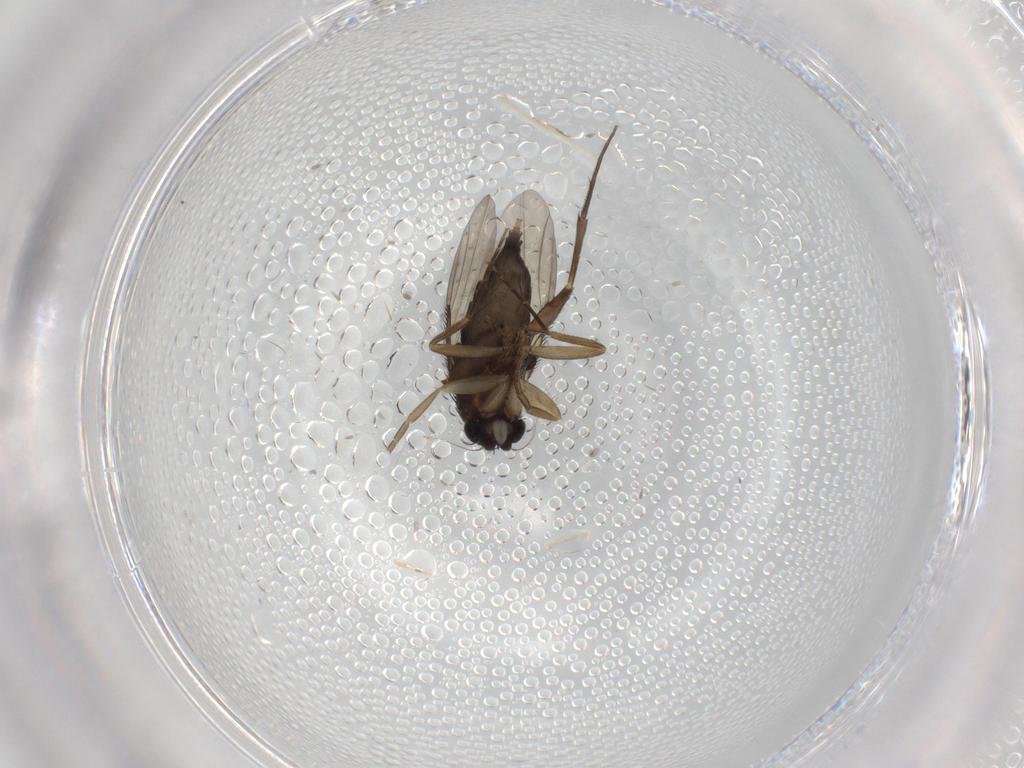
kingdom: Animalia
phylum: Arthropoda
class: Insecta
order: Diptera
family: Phoridae
